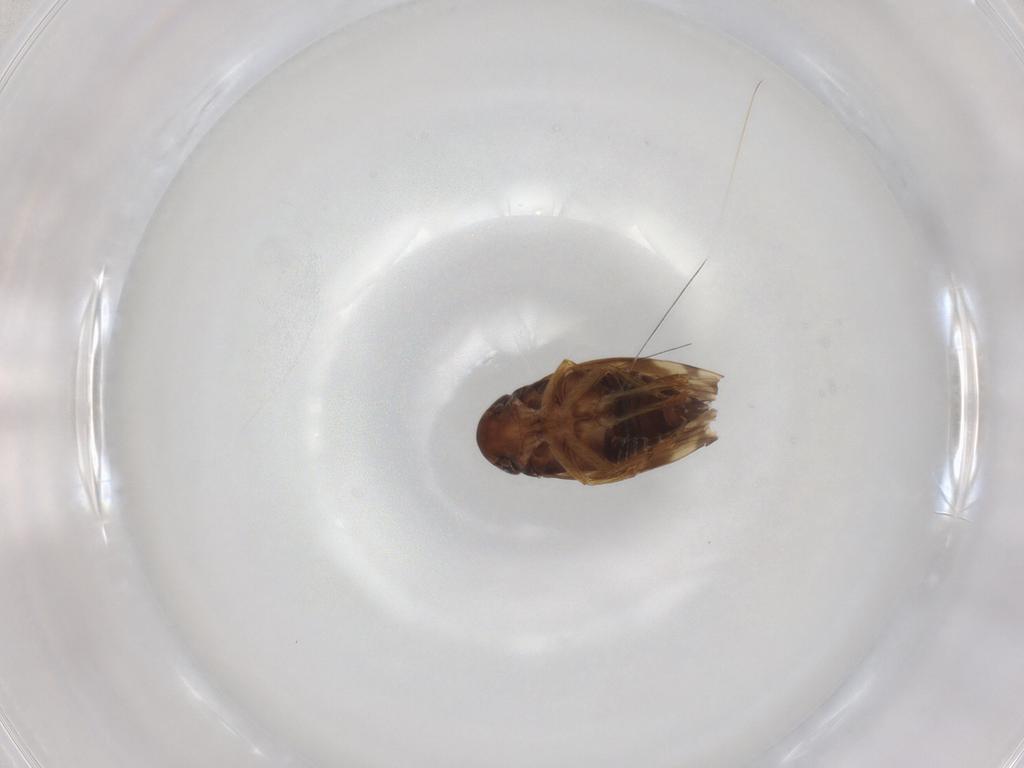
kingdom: Animalia
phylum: Arthropoda
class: Insecta
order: Hemiptera
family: Cicadellidae
